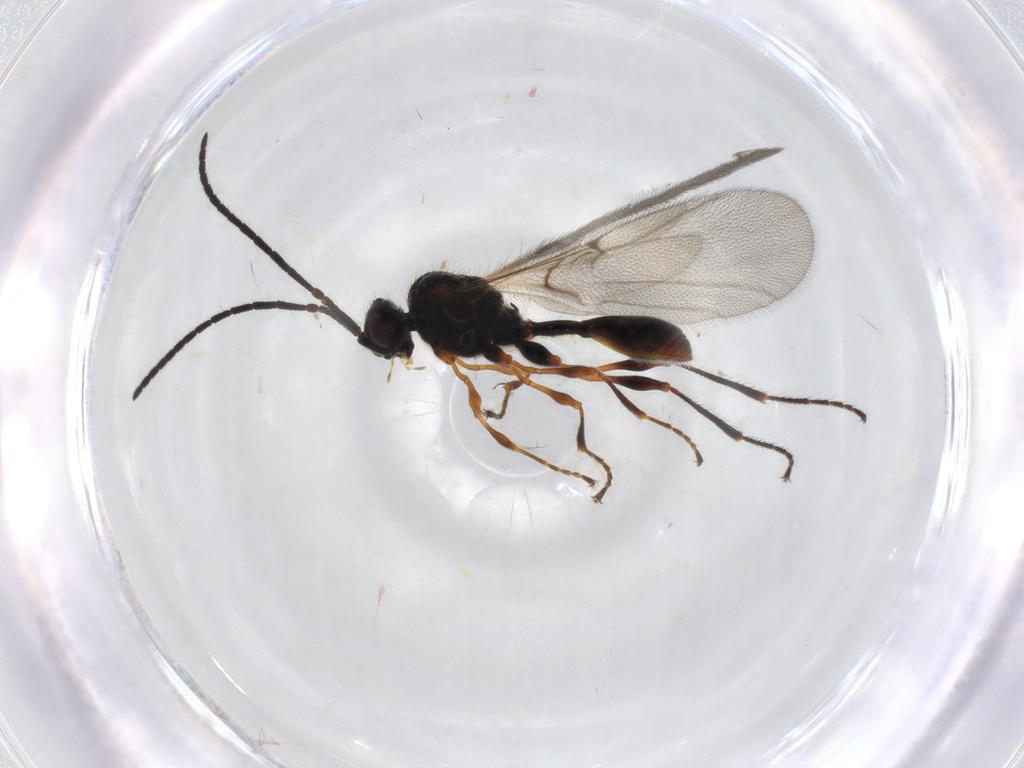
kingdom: Animalia
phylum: Arthropoda
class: Insecta
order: Hymenoptera
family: Diapriidae
